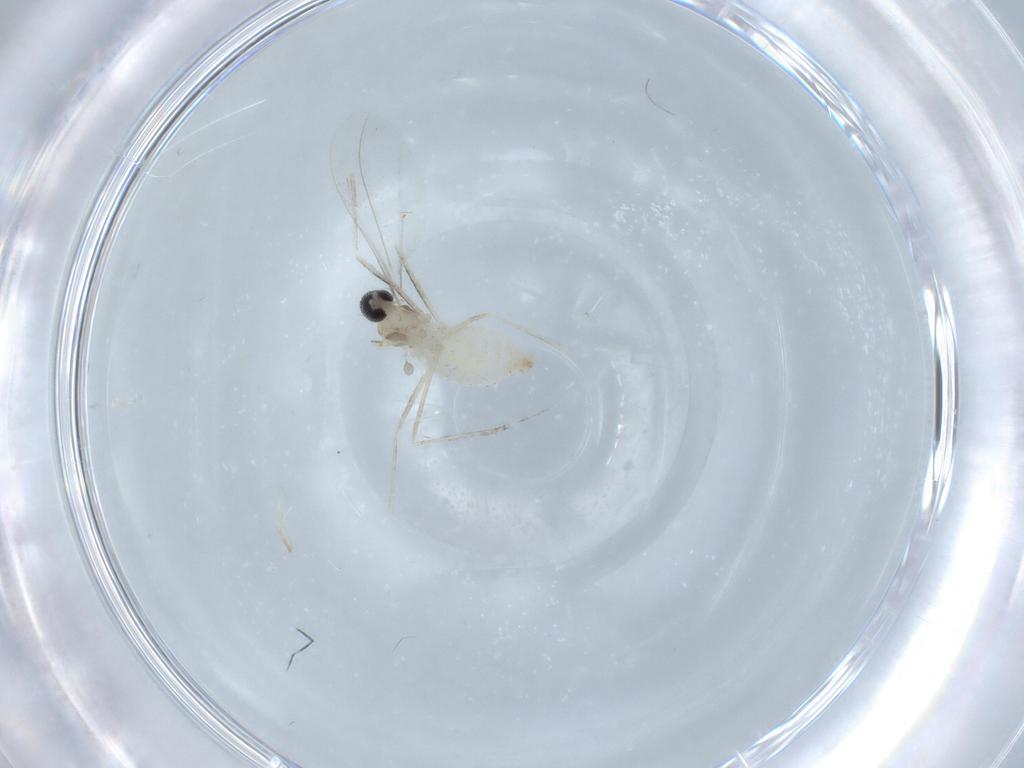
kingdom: Animalia
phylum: Arthropoda
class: Insecta
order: Diptera
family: Cecidomyiidae
